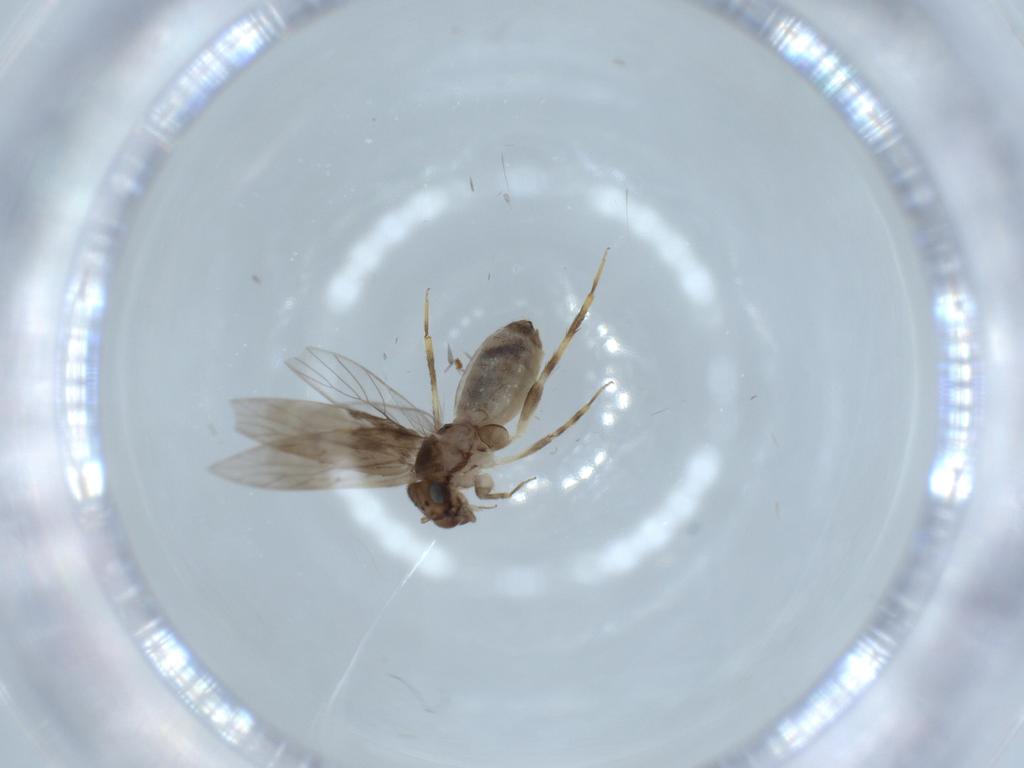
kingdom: Animalia
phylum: Arthropoda
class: Insecta
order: Psocodea
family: Lepidopsocidae
